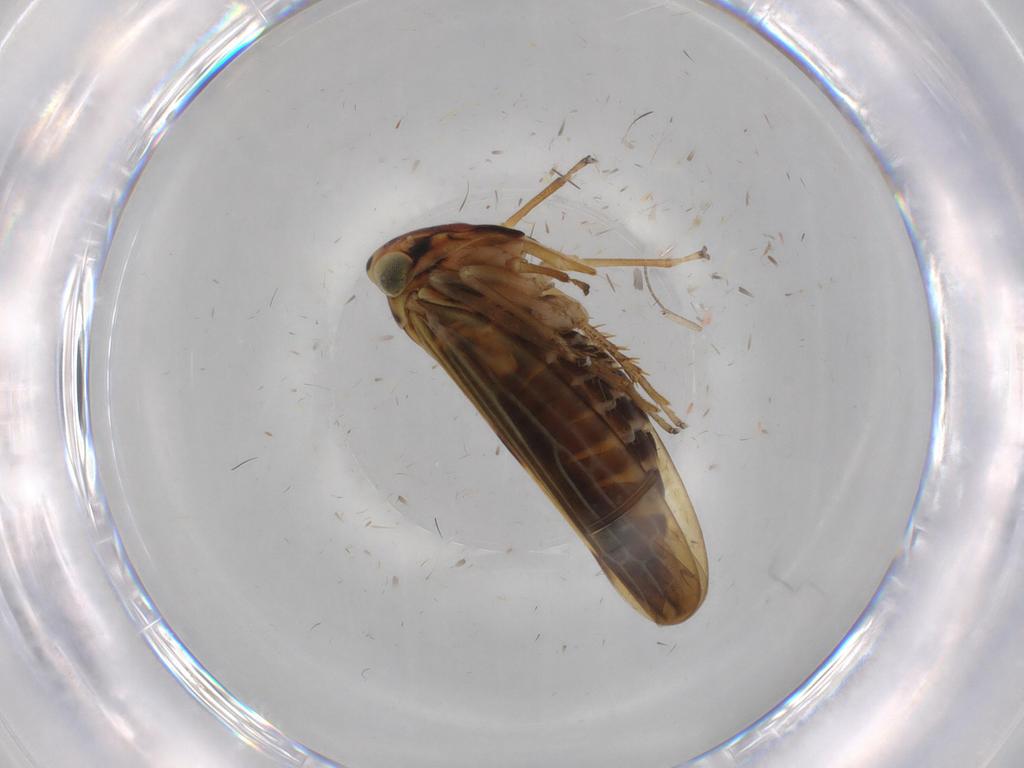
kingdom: Animalia
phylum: Arthropoda
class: Insecta
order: Hemiptera
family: Cicadellidae
